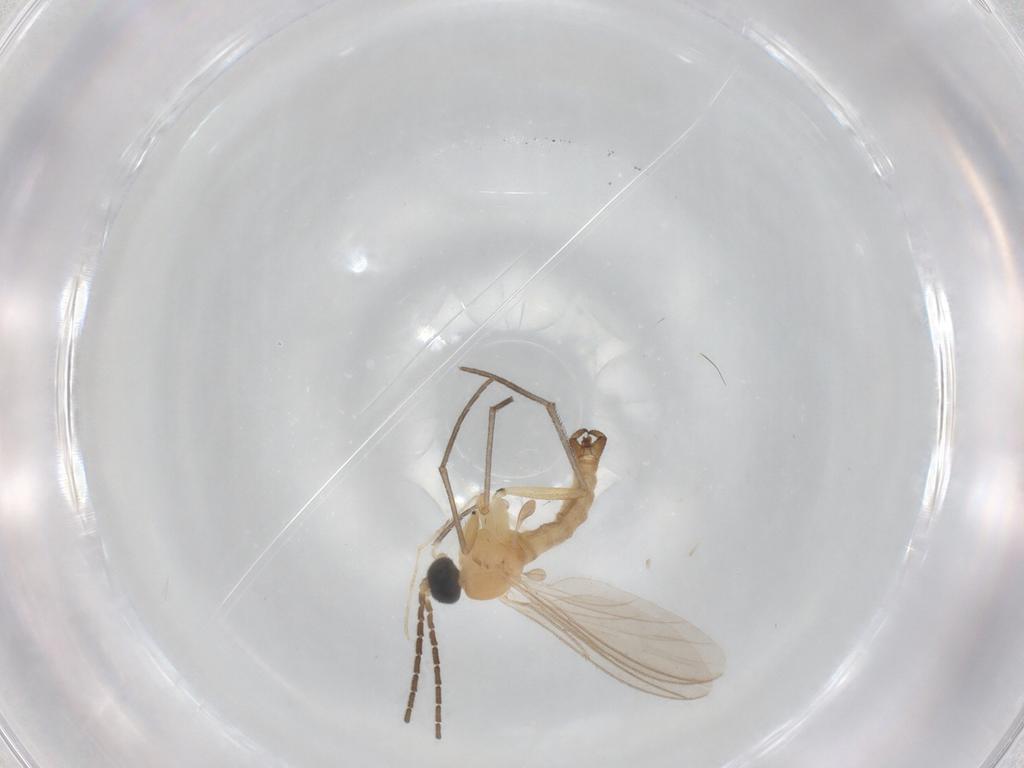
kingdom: Animalia
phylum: Arthropoda
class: Insecta
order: Diptera
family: Sciaridae
